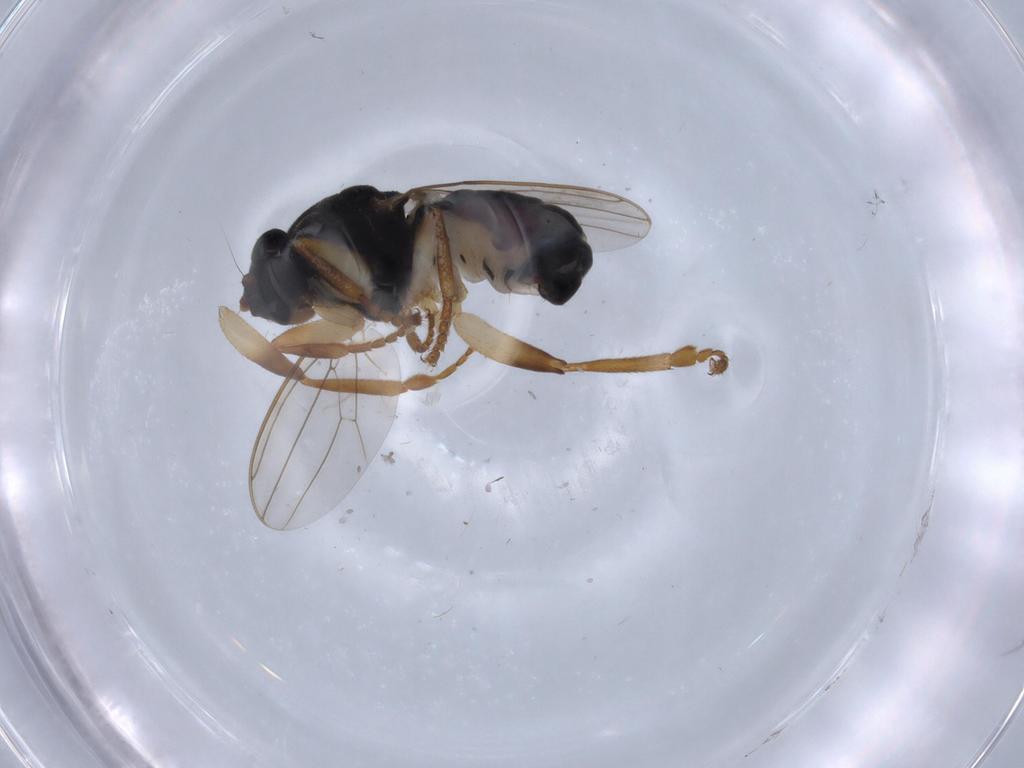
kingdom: Animalia
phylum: Arthropoda
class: Insecta
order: Diptera
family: Sphaeroceridae
